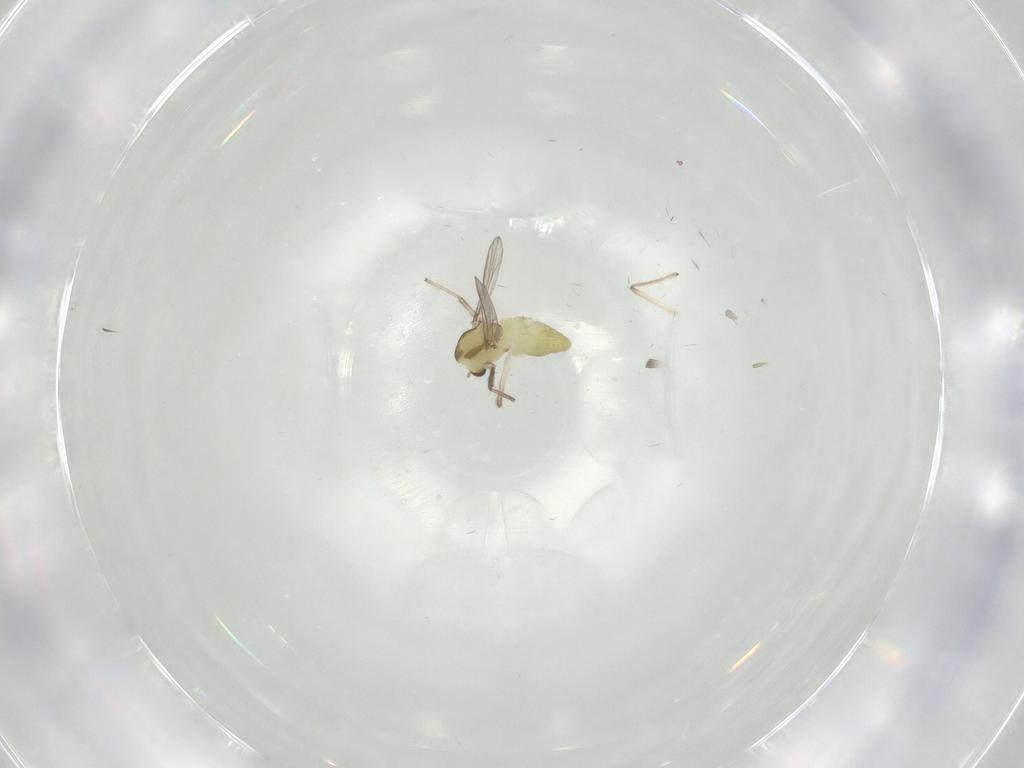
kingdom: Animalia
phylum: Arthropoda
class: Insecta
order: Diptera
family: Chironomidae
